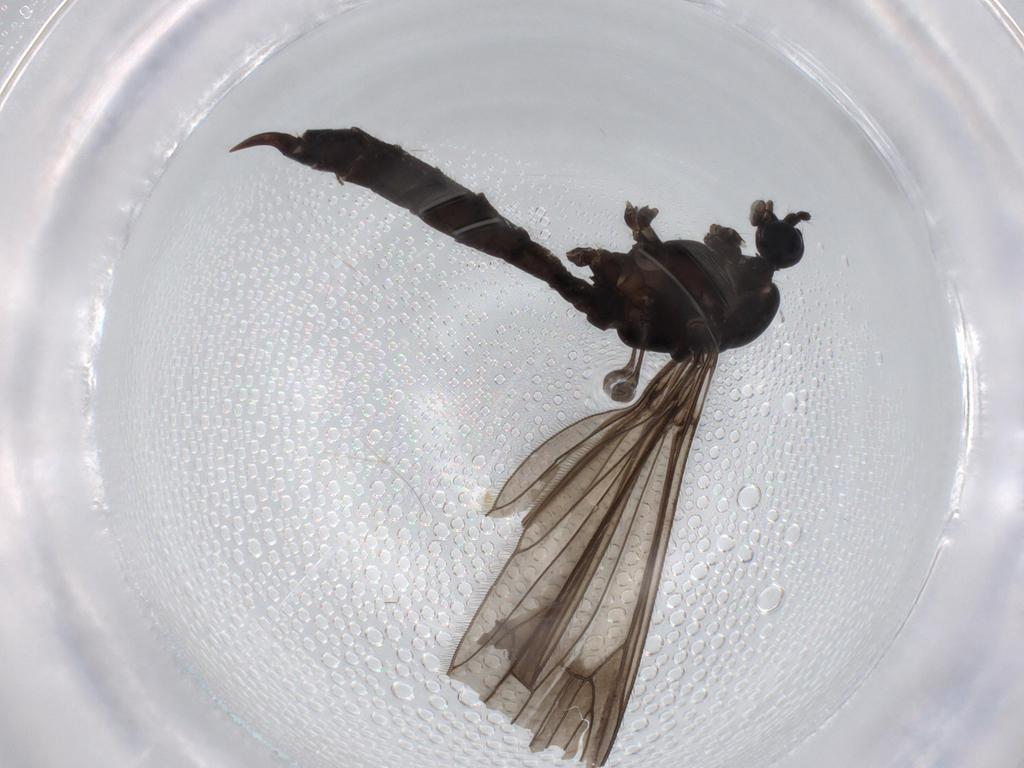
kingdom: Animalia
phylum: Arthropoda
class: Insecta
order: Diptera
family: Limoniidae
